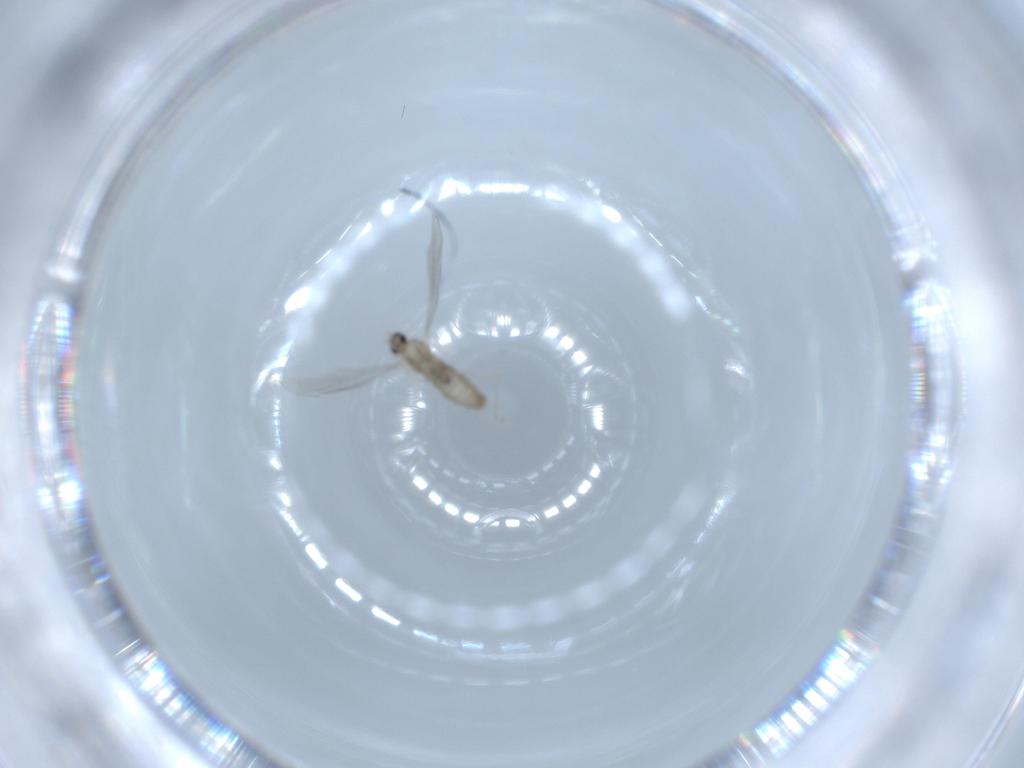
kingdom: Animalia
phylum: Arthropoda
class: Insecta
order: Diptera
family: Cecidomyiidae
